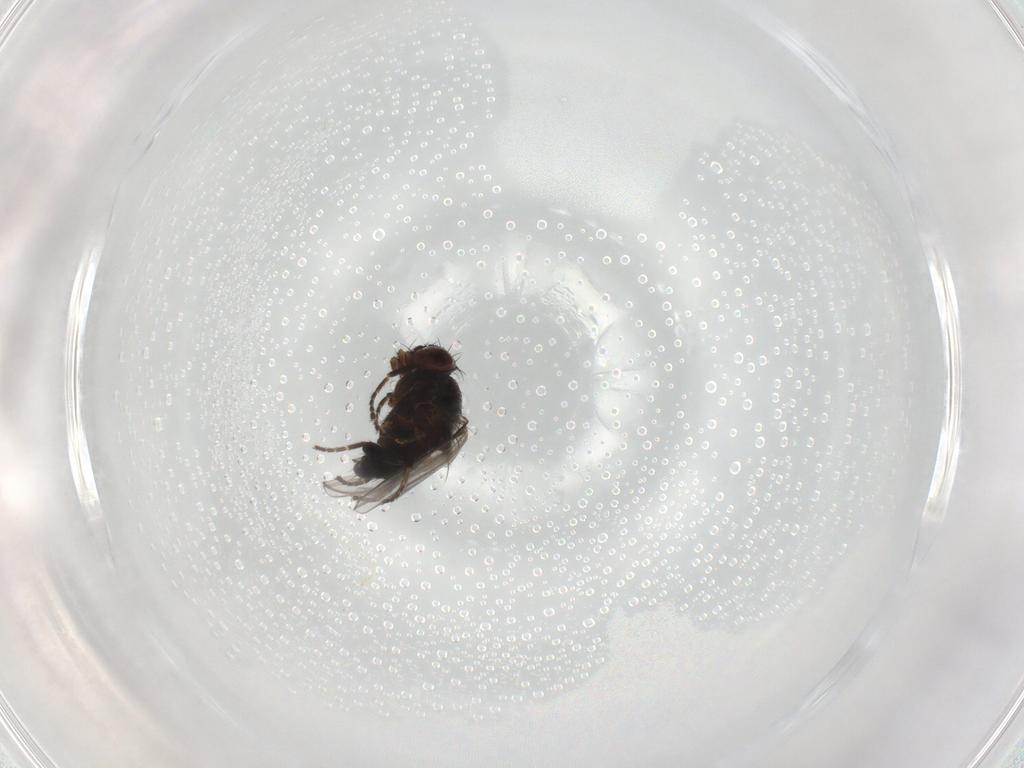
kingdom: Animalia
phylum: Arthropoda
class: Insecta
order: Diptera
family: Milichiidae
